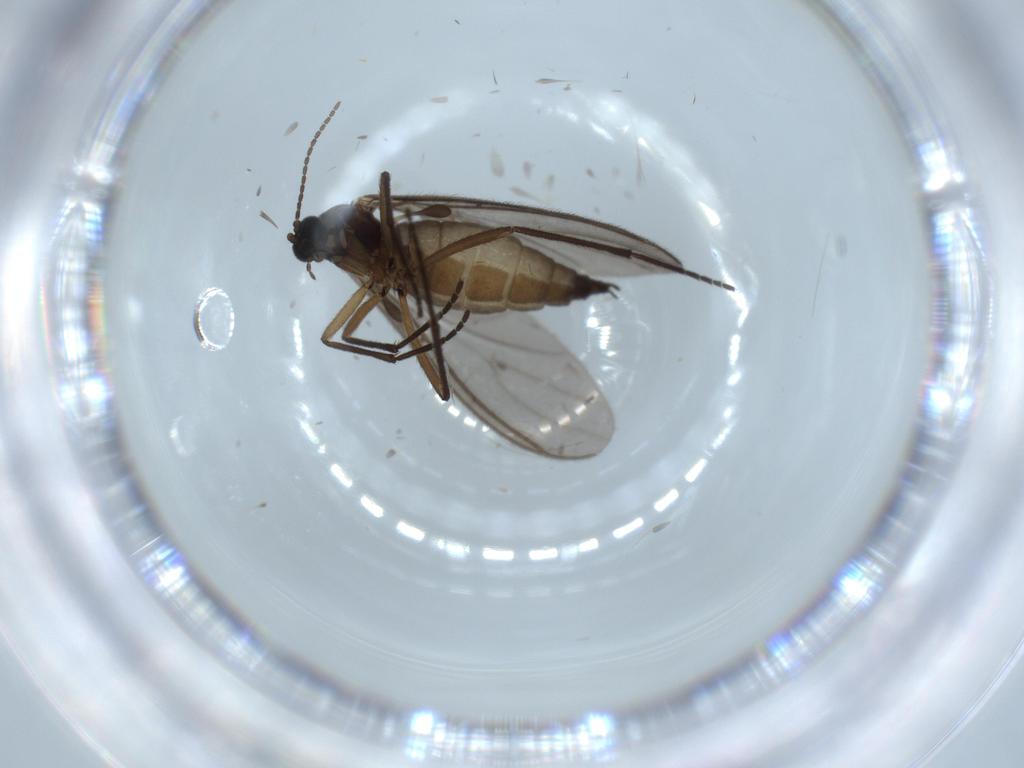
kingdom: Animalia
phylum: Arthropoda
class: Insecta
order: Diptera
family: Sciaridae
